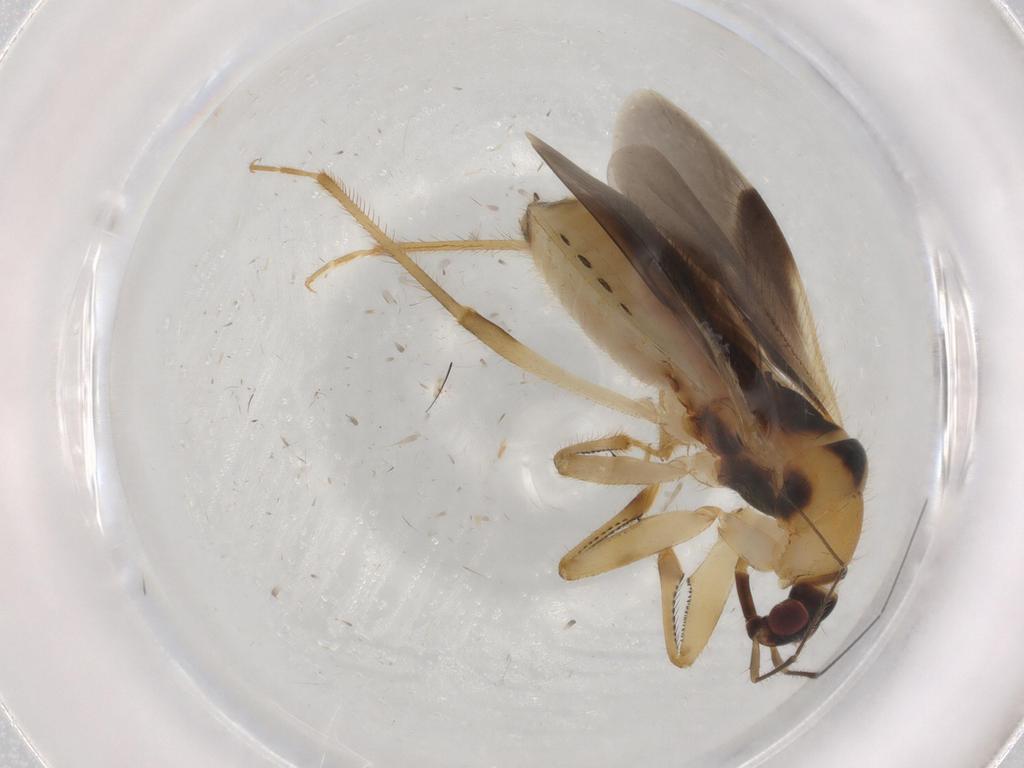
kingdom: Animalia
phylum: Arthropoda
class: Insecta
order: Hemiptera
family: Nabidae
